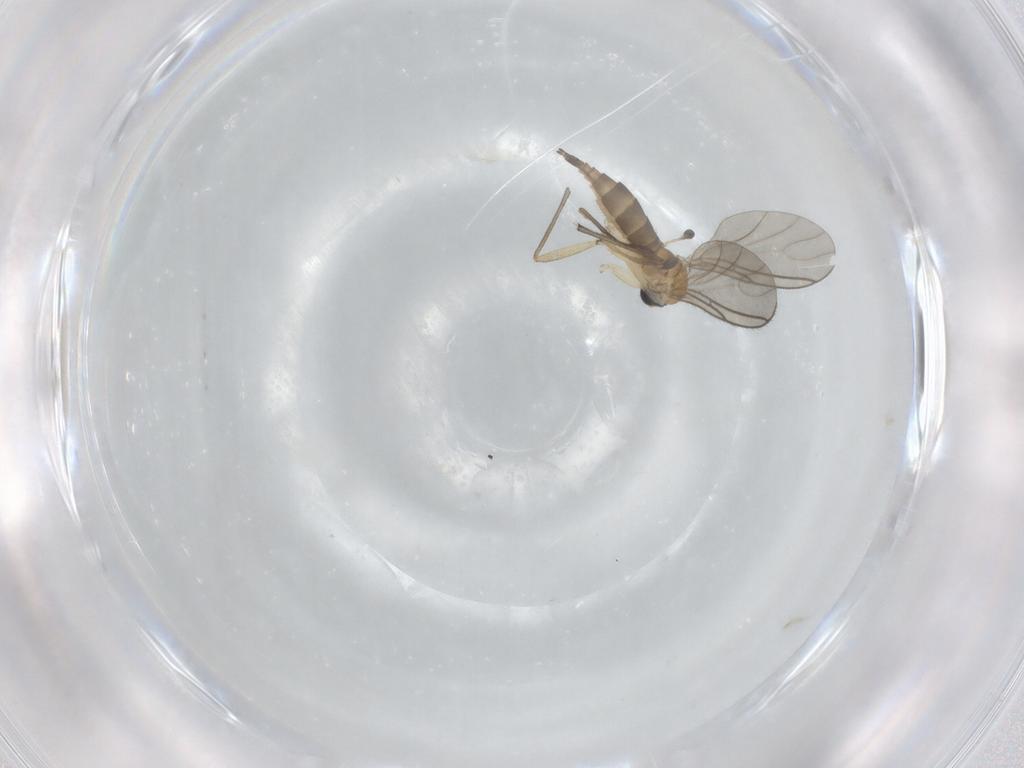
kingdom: Animalia
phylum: Arthropoda
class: Insecta
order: Diptera
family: Sciaridae
